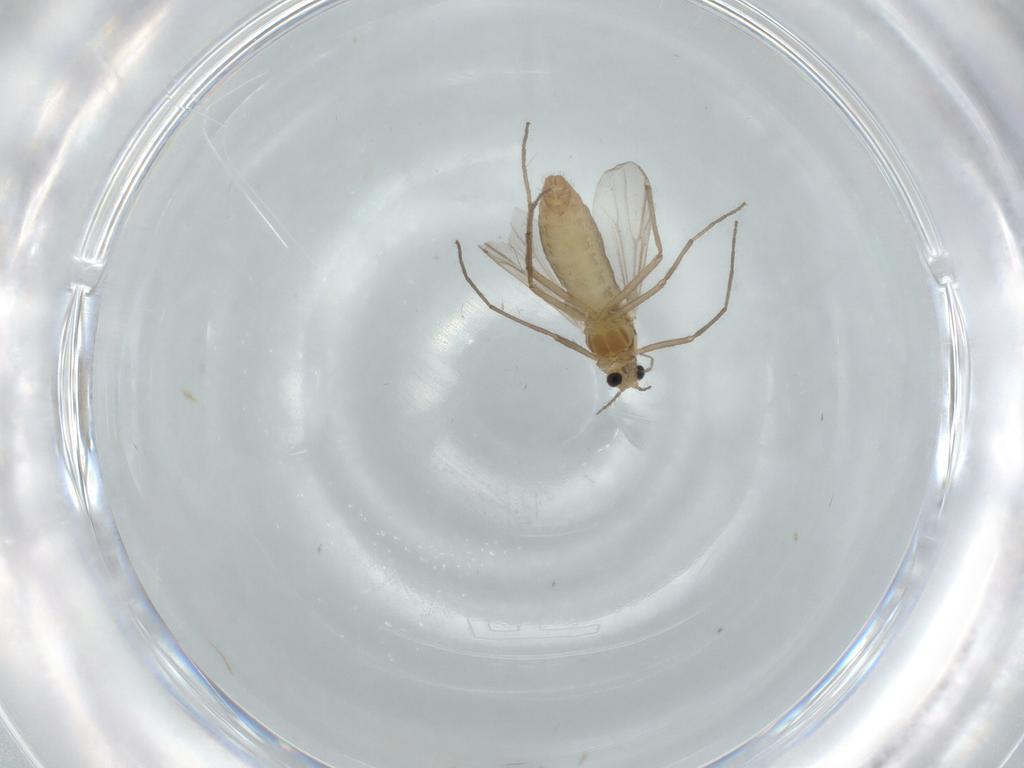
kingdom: Animalia
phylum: Arthropoda
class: Insecta
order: Diptera
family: Chironomidae
